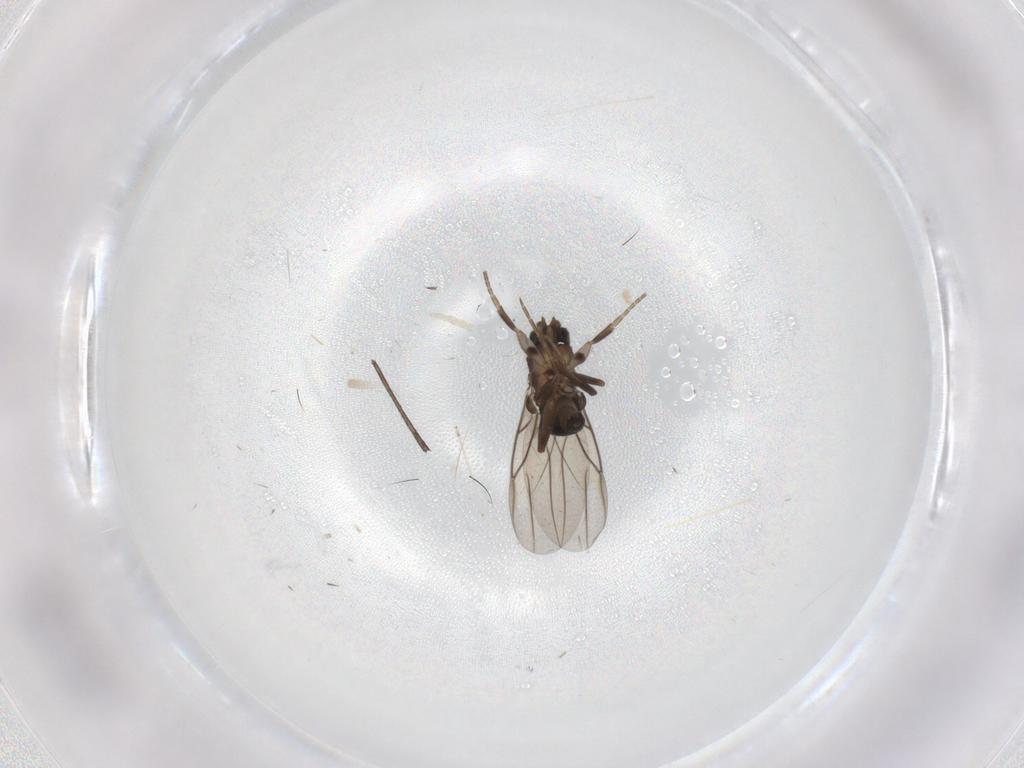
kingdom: Animalia
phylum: Arthropoda
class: Insecta
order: Diptera
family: Phoridae
